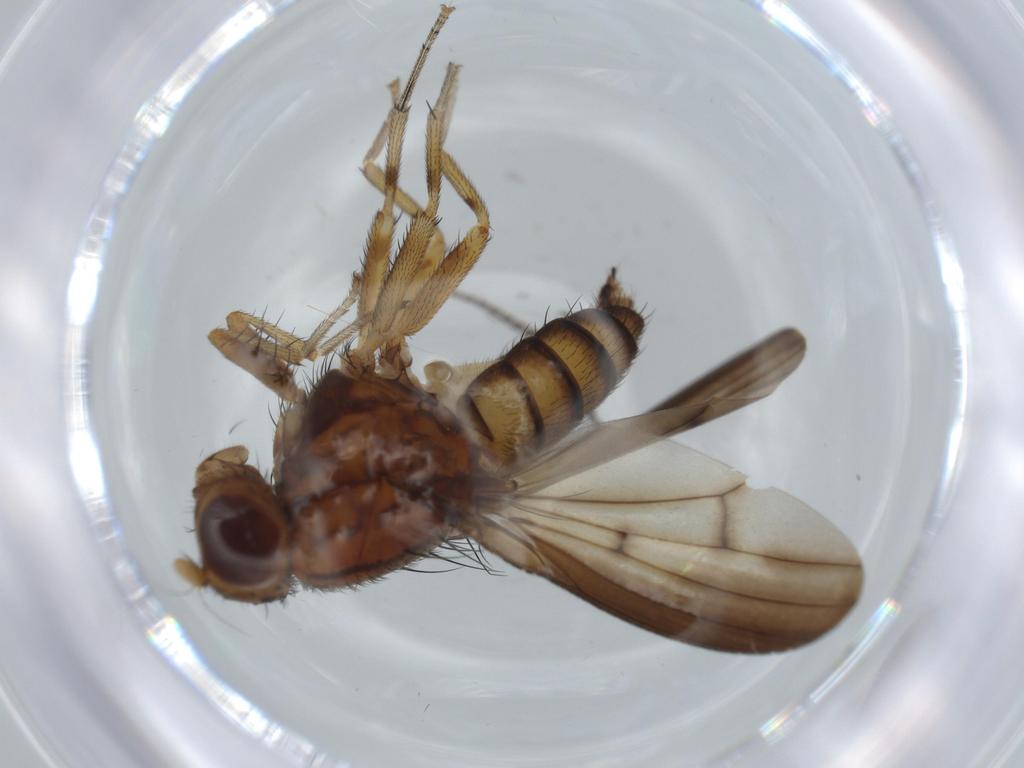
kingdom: Animalia
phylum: Arthropoda
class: Insecta
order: Diptera
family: Lauxaniidae
